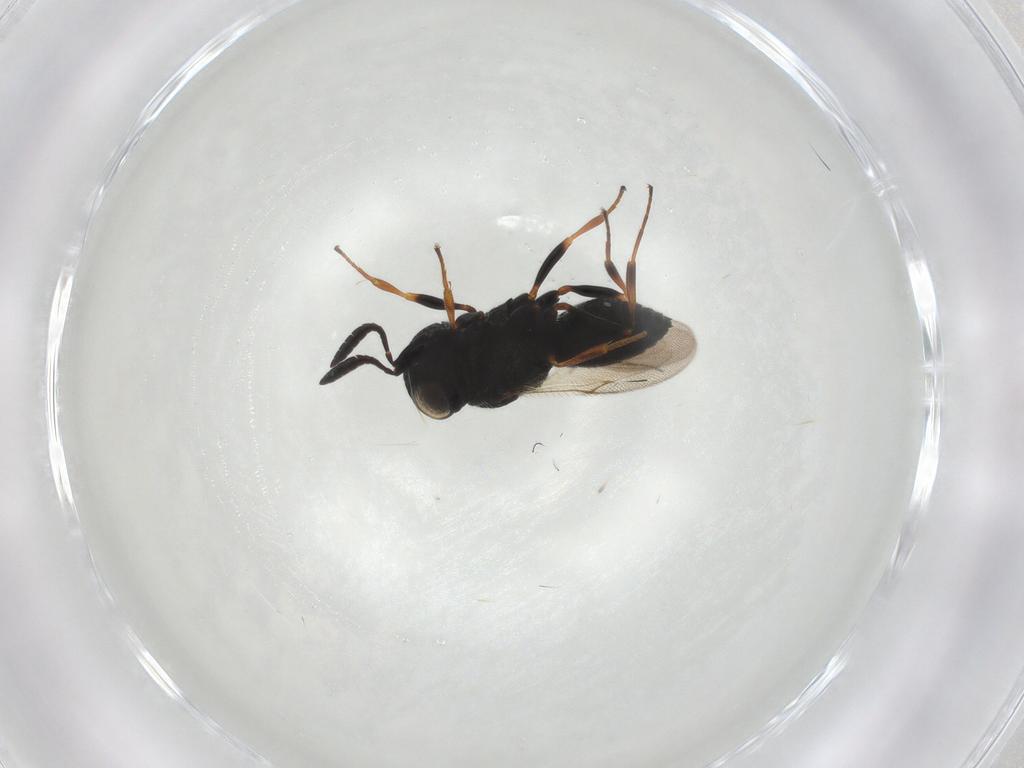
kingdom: Animalia
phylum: Arthropoda
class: Insecta
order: Hymenoptera
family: Scelionidae
